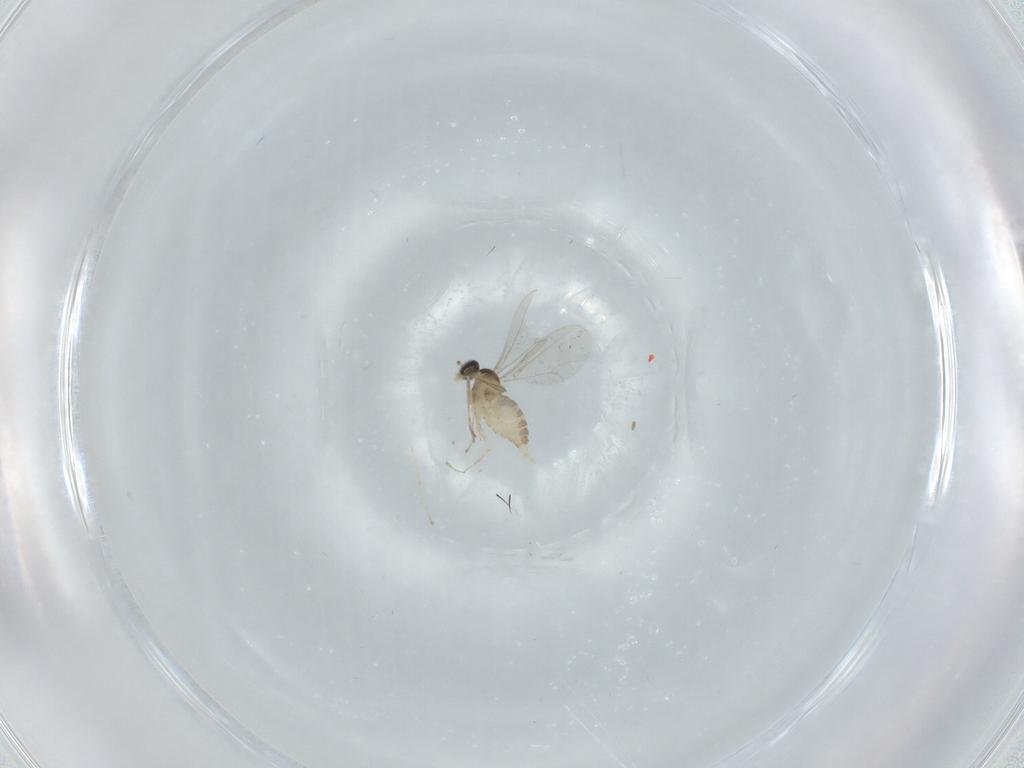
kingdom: Animalia
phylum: Arthropoda
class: Insecta
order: Diptera
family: Cecidomyiidae
